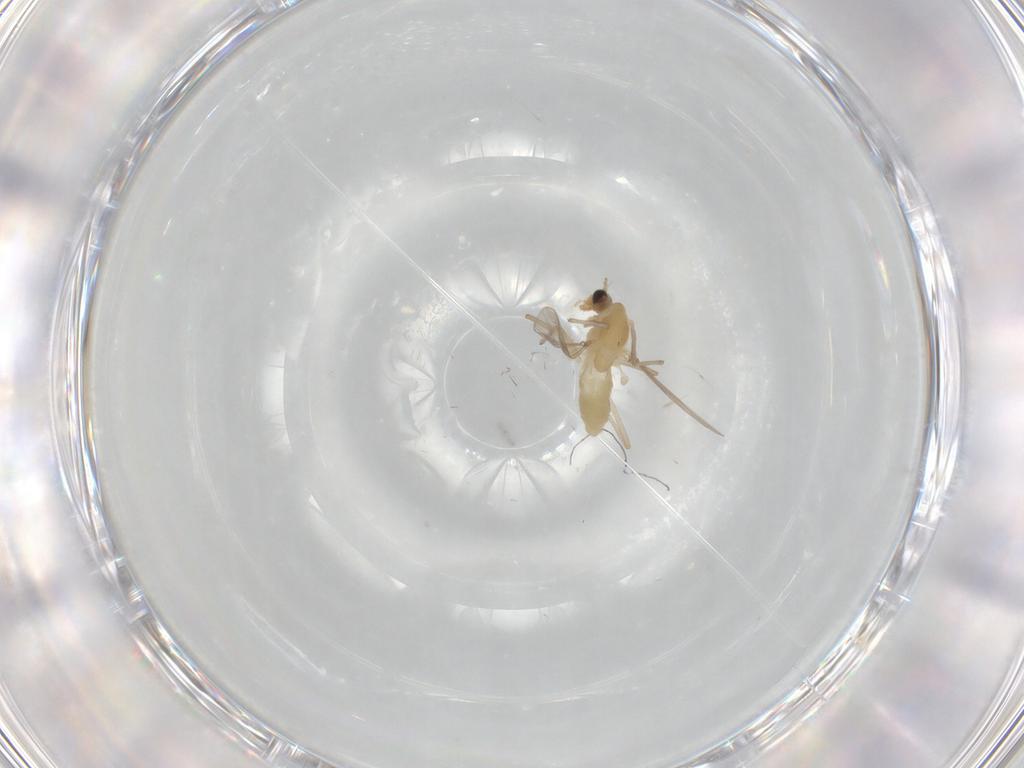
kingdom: Animalia
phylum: Arthropoda
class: Insecta
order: Diptera
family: Chironomidae
